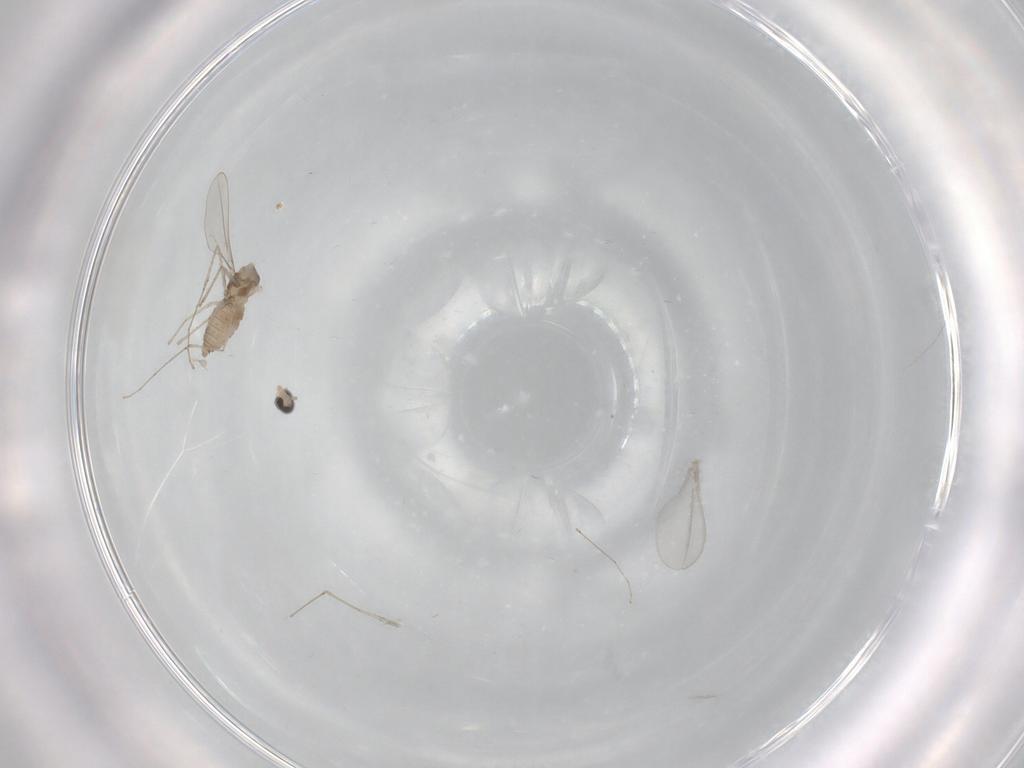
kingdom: Animalia
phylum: Arthropoda
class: Insecta
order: Diptera
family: Cecidomyiidae
